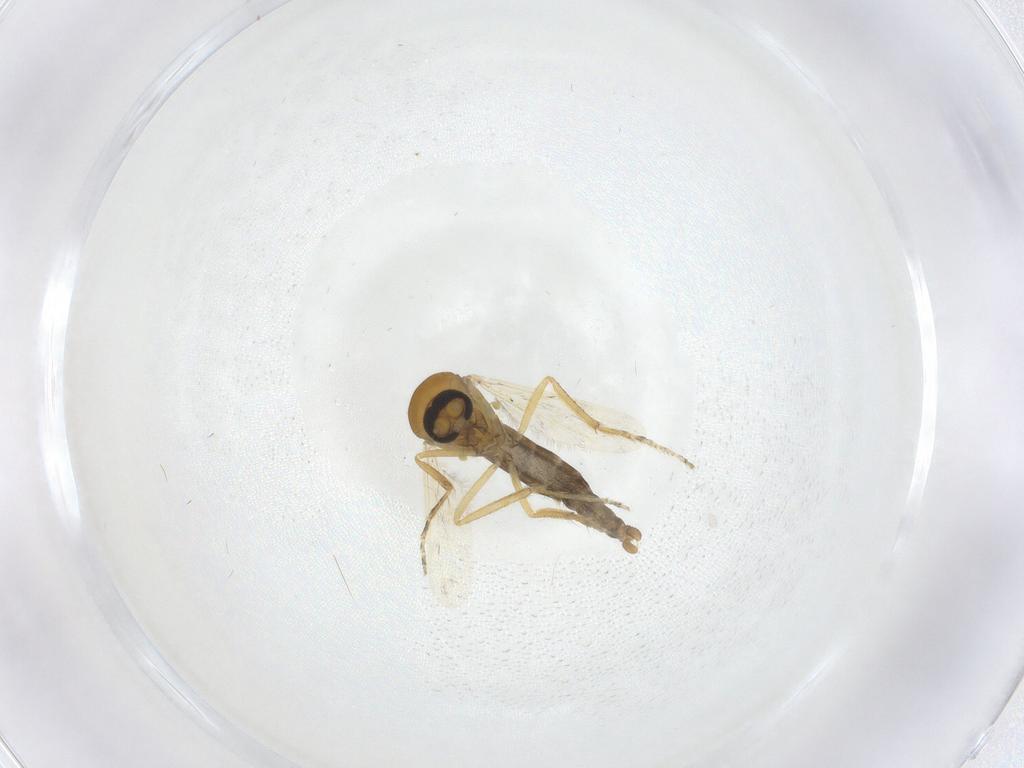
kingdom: Animalia
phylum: Arthropoda
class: Insecta
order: Diptera
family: Ceratopogonidae
